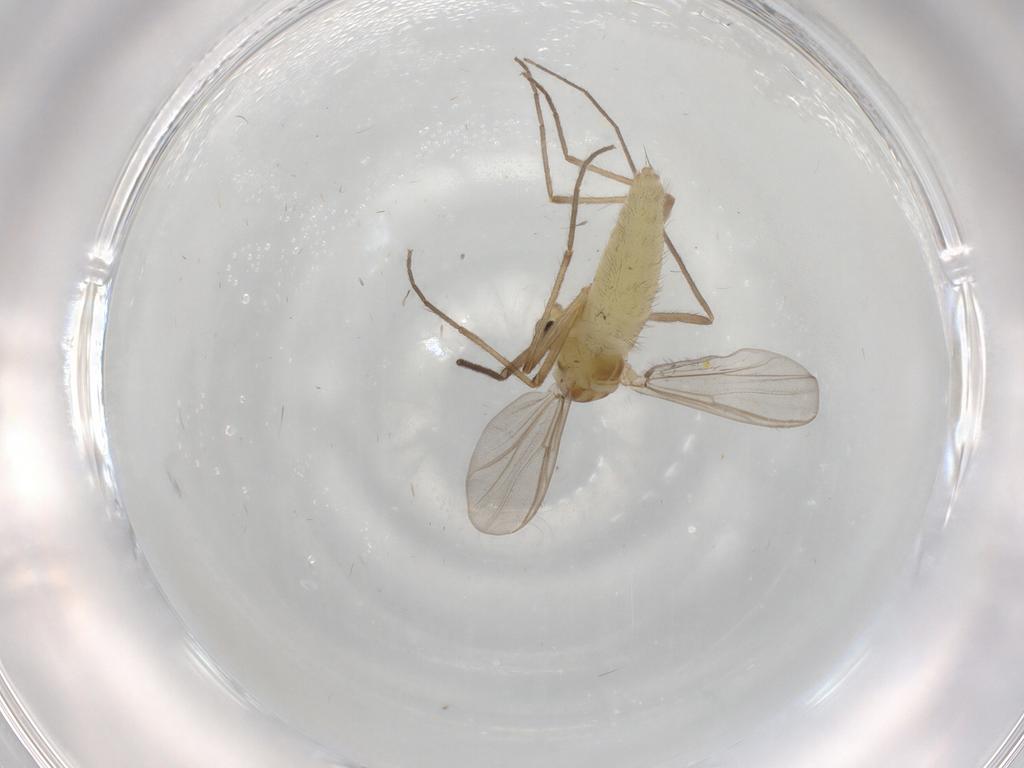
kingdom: Animalia
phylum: Arthropoda
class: Insecta
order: Diptera
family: Chironomidae
